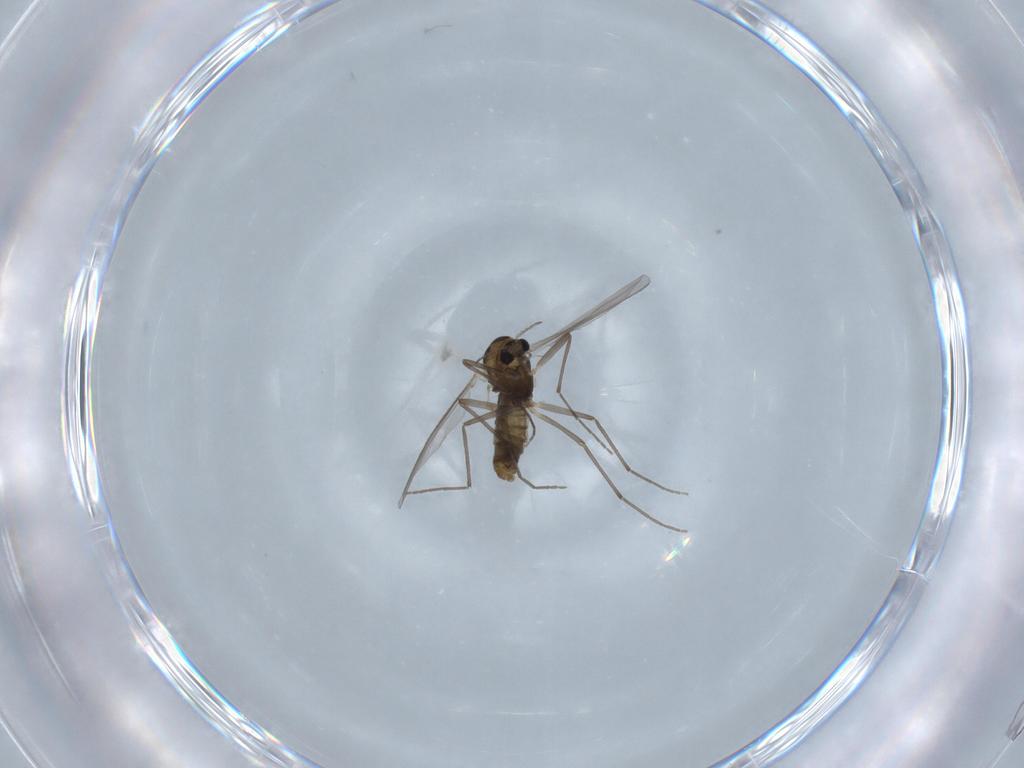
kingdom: Animalia
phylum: Arthropoda
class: Insecta
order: Diptera
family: Chironomidae
